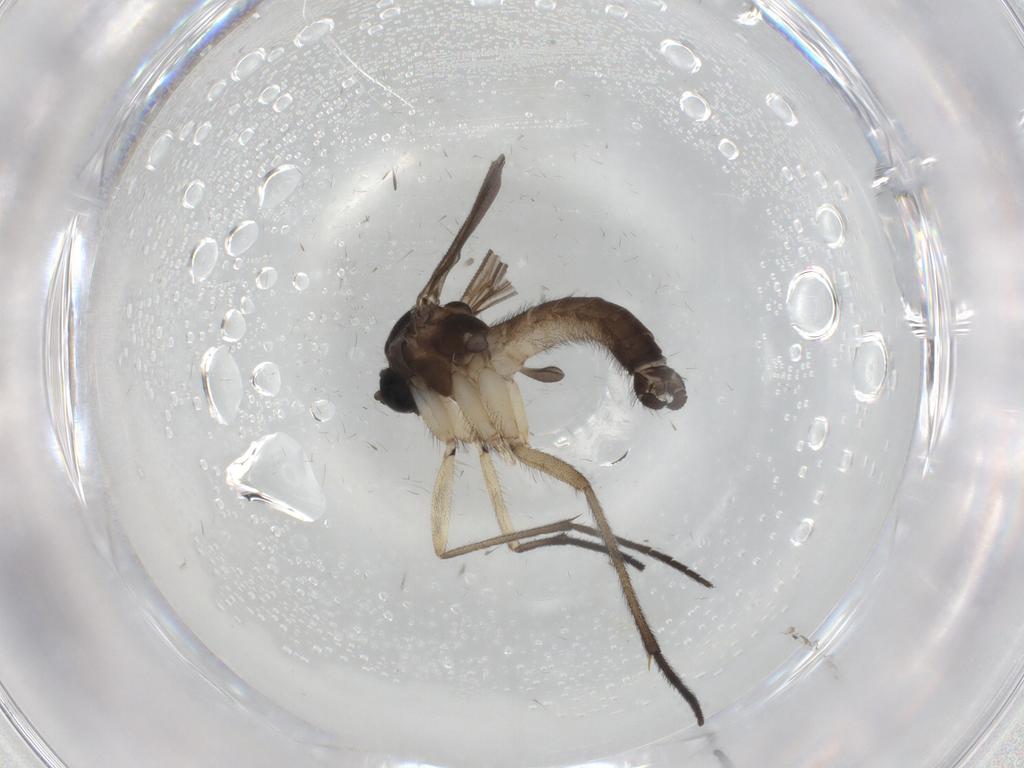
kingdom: Animalia
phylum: Arthropoda
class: Insecta
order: Diptera
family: Sciaridae
